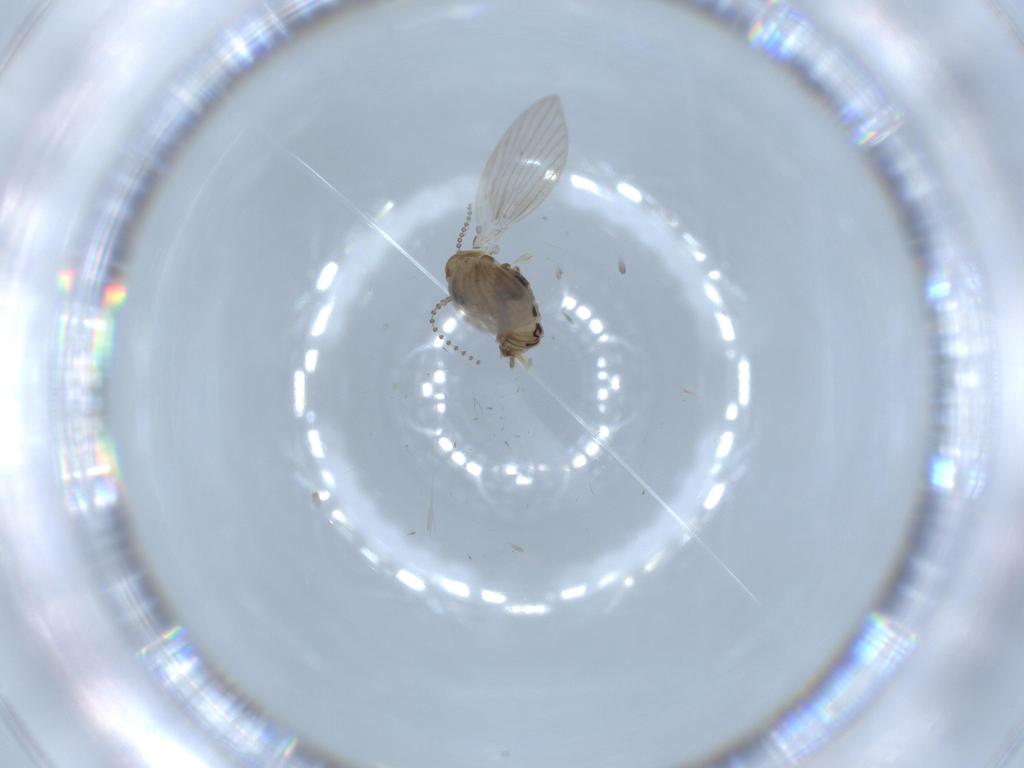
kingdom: Animalia
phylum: Arthropoda
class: Insecta
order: Diptera
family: Psychodidae
